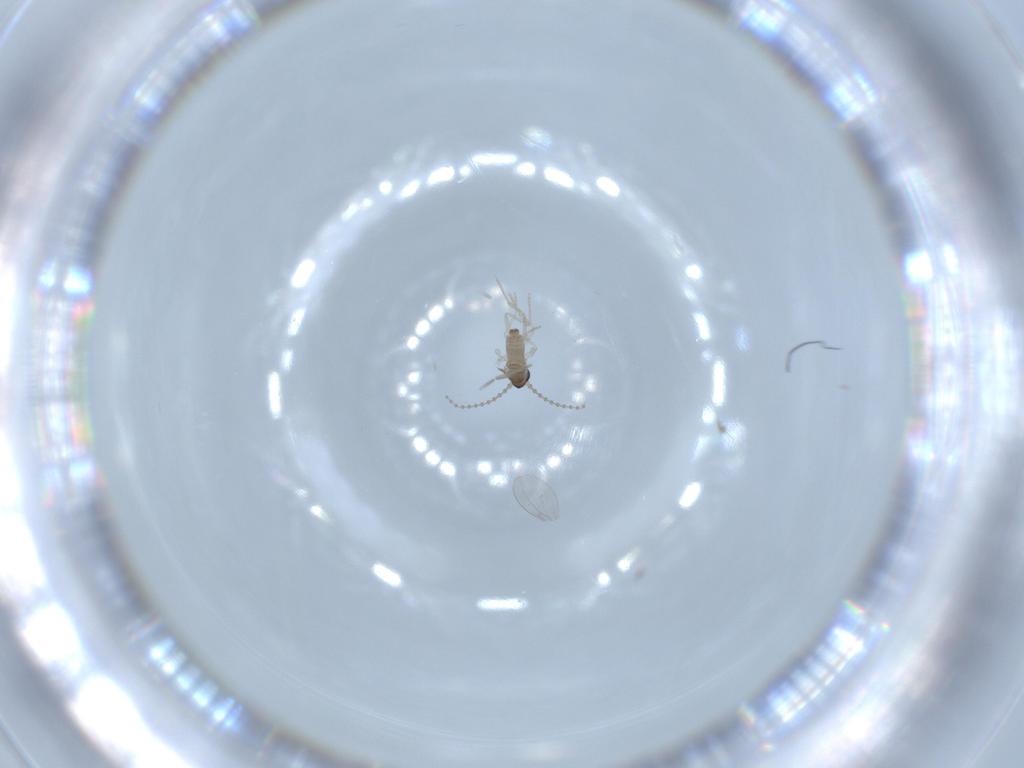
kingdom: Animalia
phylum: Arthropoda
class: Insecta
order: Diptera
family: Cecidomyiidae
